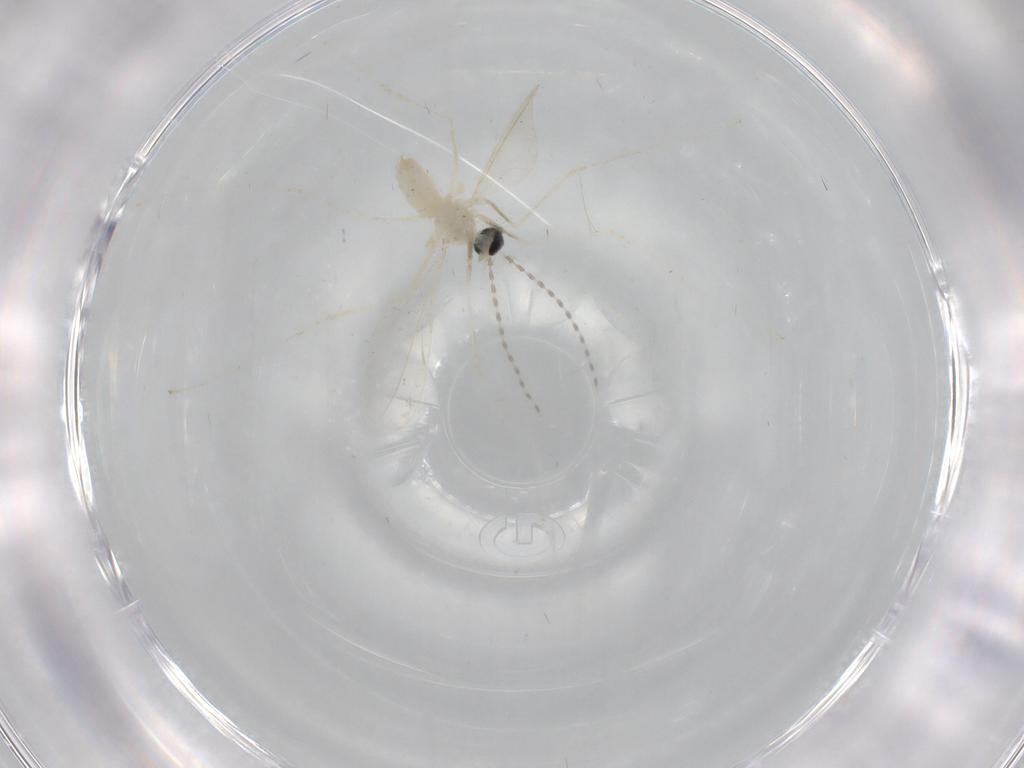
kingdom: Animalia
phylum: Arthropoda
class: Insecta
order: Diptera
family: Cecidomyiidae
